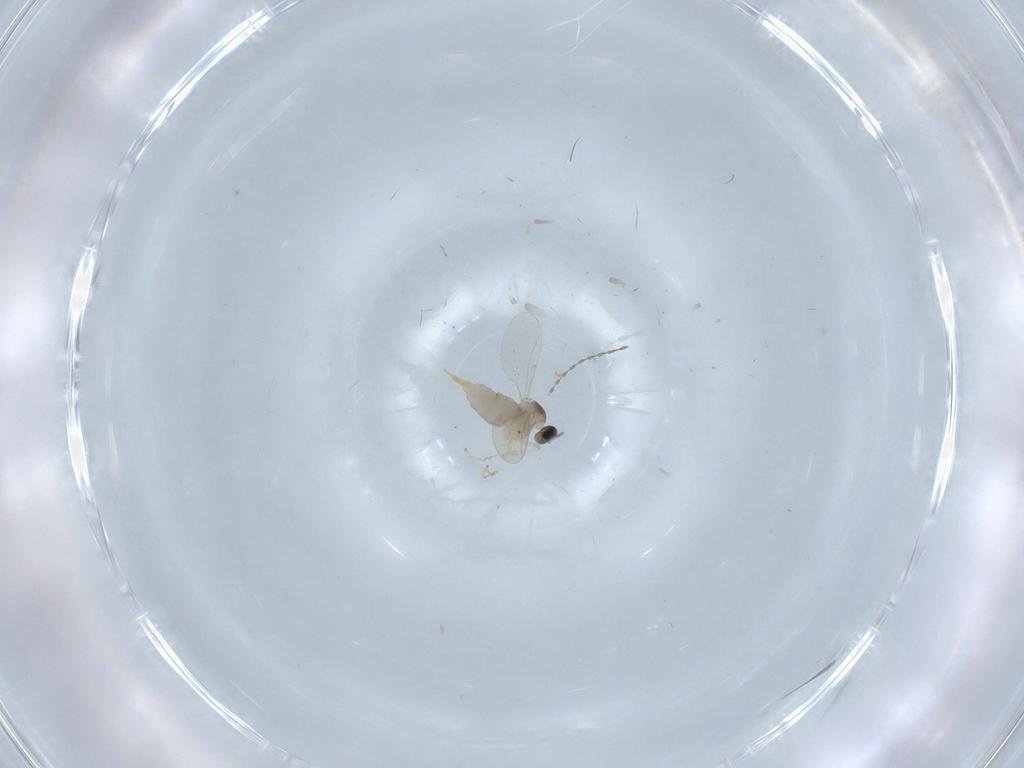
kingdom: Animalia
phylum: Arthropoda
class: Insecta
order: Diptera
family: Cecidomyiidae
